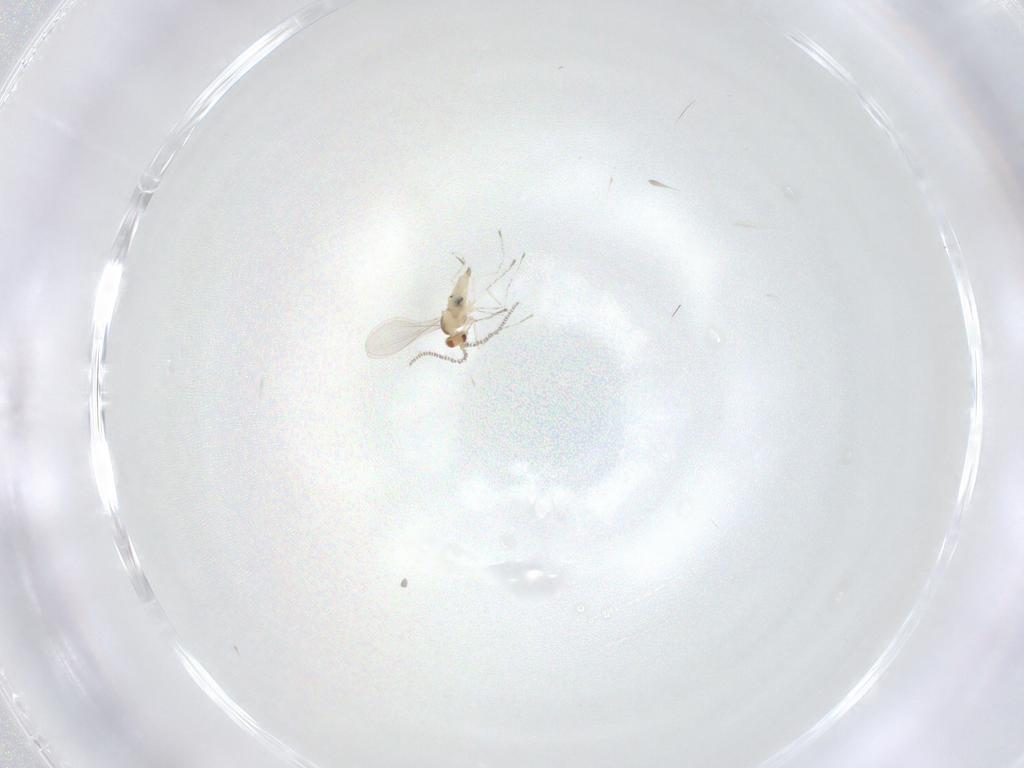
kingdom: Animalia
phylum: Arthropoda
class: Insecta
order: Diptera
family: Cecidomyiidae
